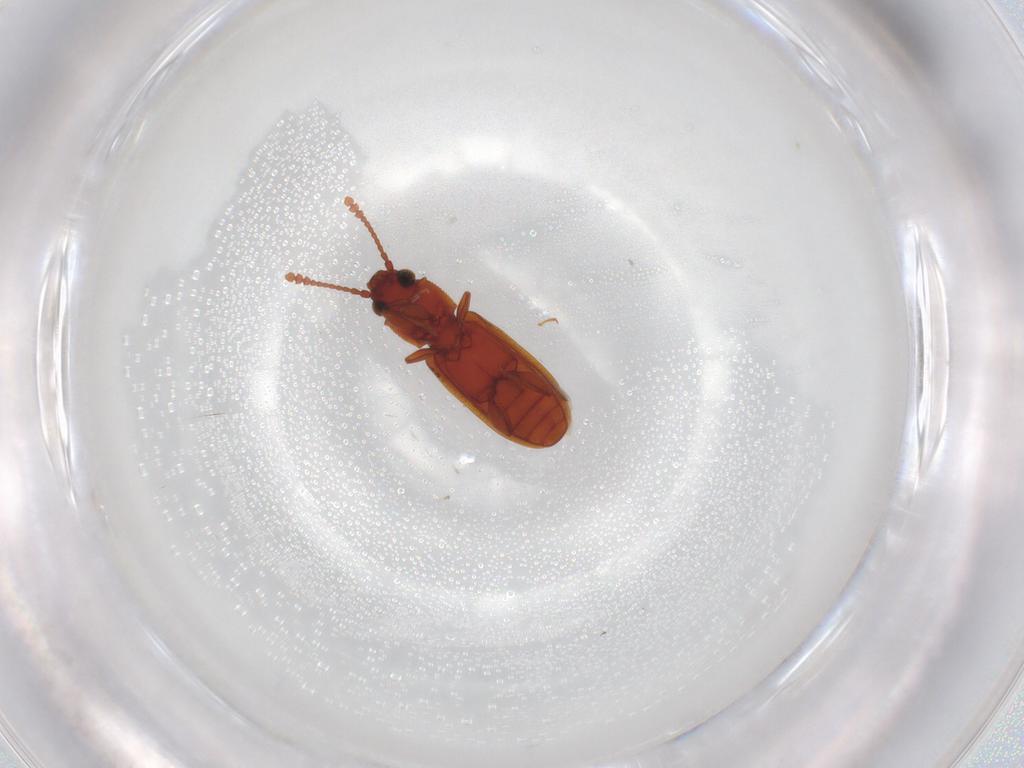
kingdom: Animalia
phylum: Arthropoda
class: Insecta
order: Coleoptera
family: Silvanidae
